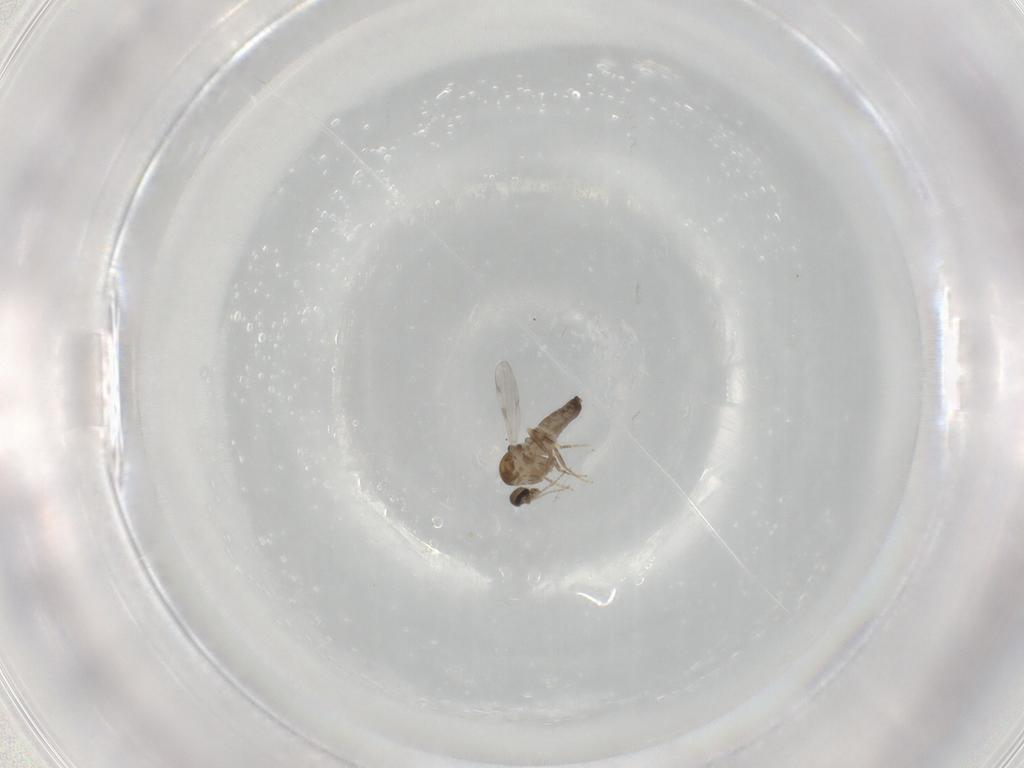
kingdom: Animalia
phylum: Arthropoda
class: Insecta
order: Diptera
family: Ceratopogonidae
